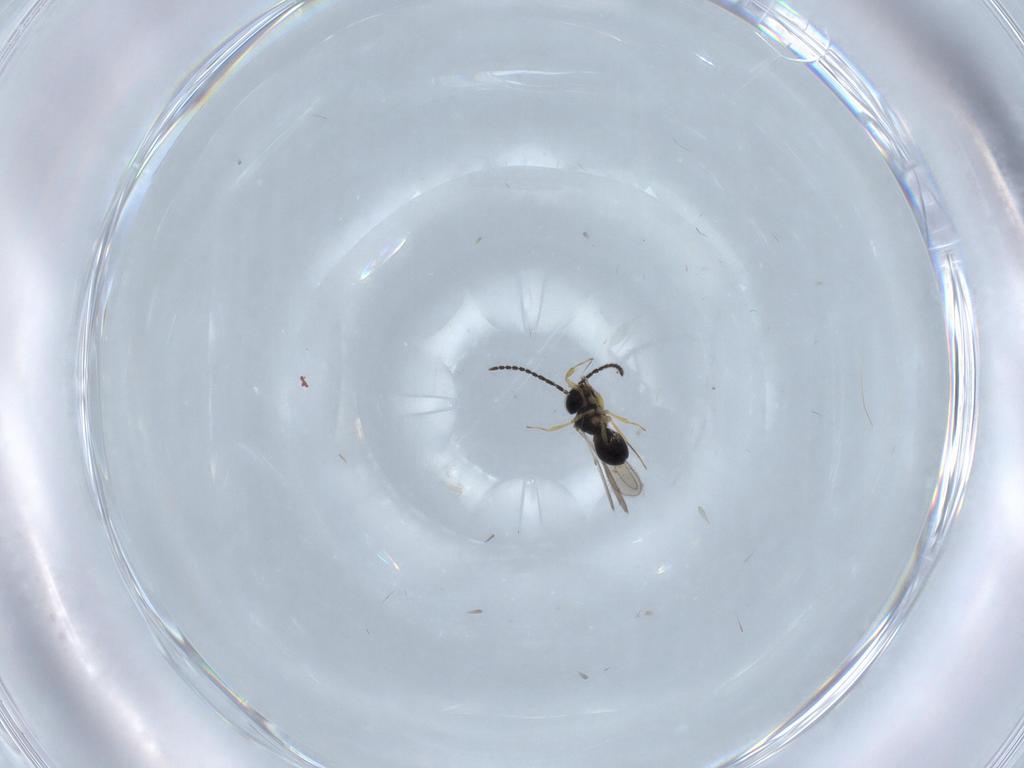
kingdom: Animalia
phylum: Arthropoda
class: Insecta
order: Hymenoptera
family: Scelionidae
